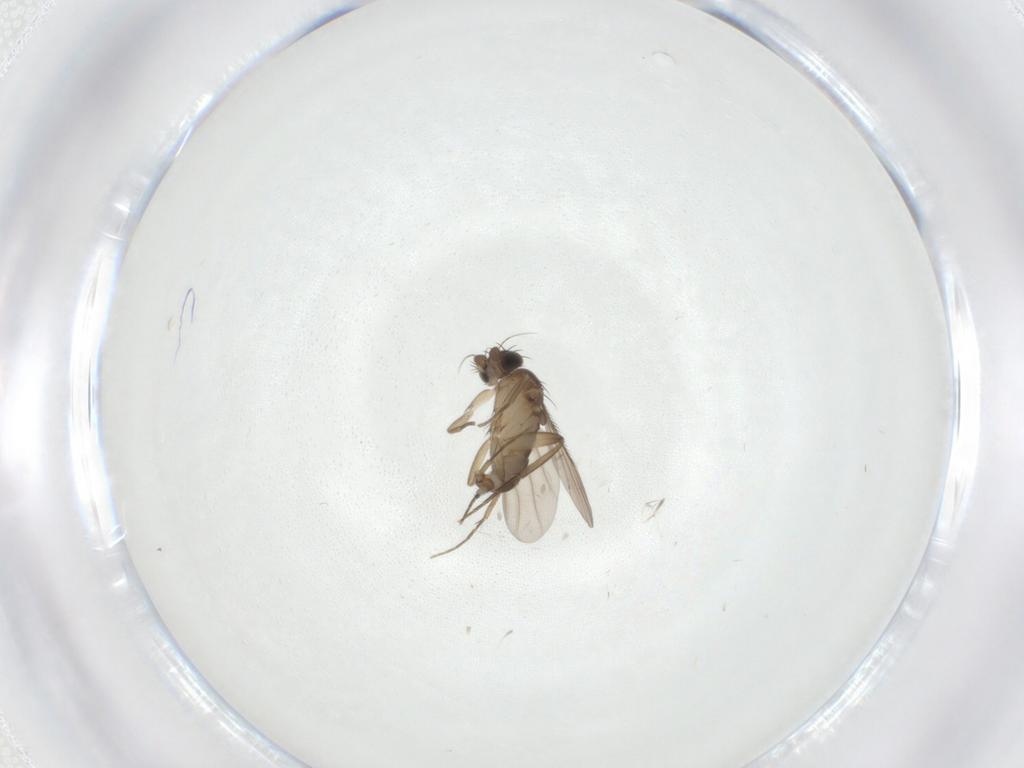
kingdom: Animalia
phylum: Arthropoda
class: Insecta
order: Diptera
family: Phoridae
